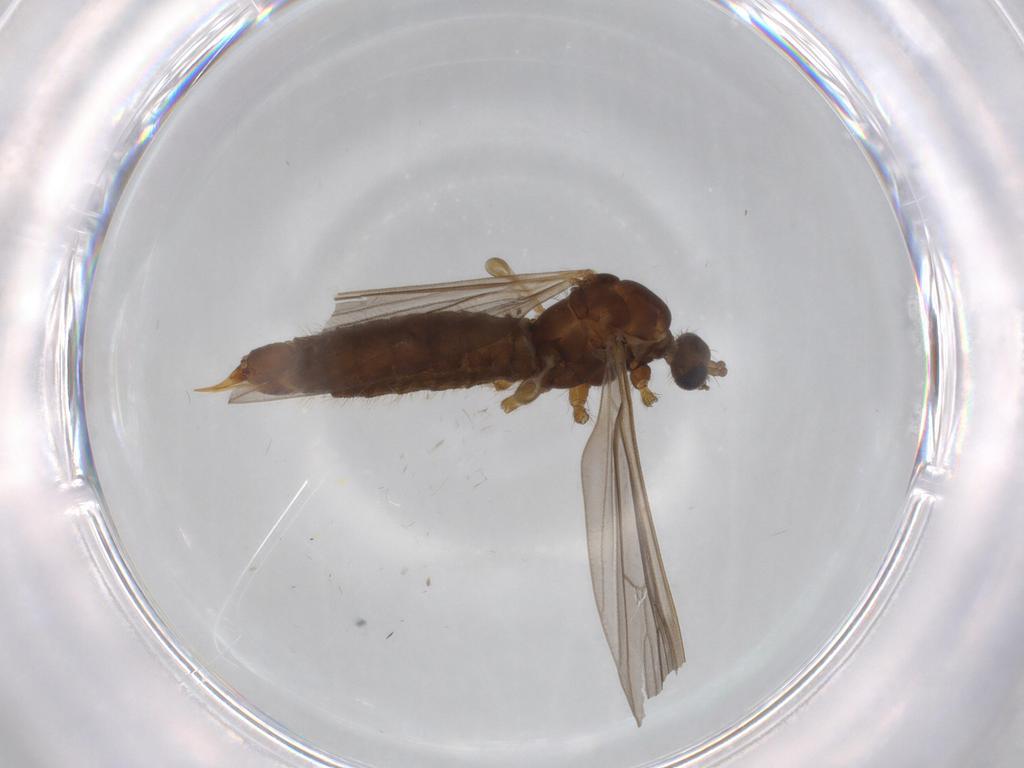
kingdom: Animalia
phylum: Arthropoda
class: Insecta
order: Diptera
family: Limoniidae
